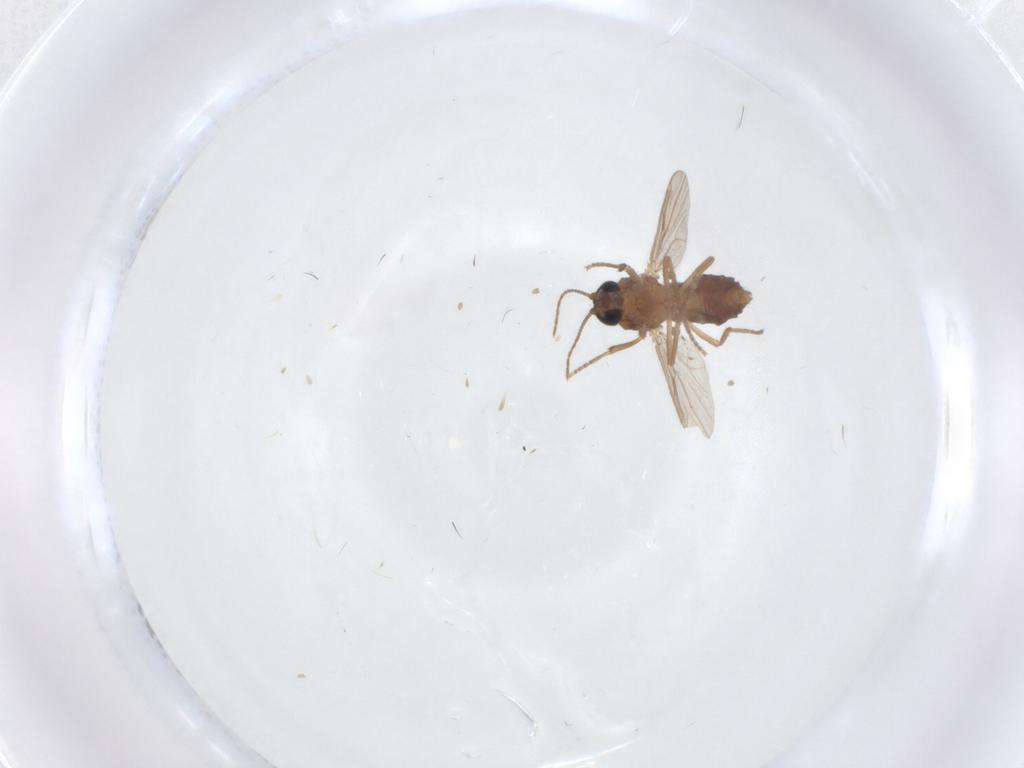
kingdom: Animalia
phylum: Arthropoda
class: Insecta
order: Diptera
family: Ceratopogonidae
